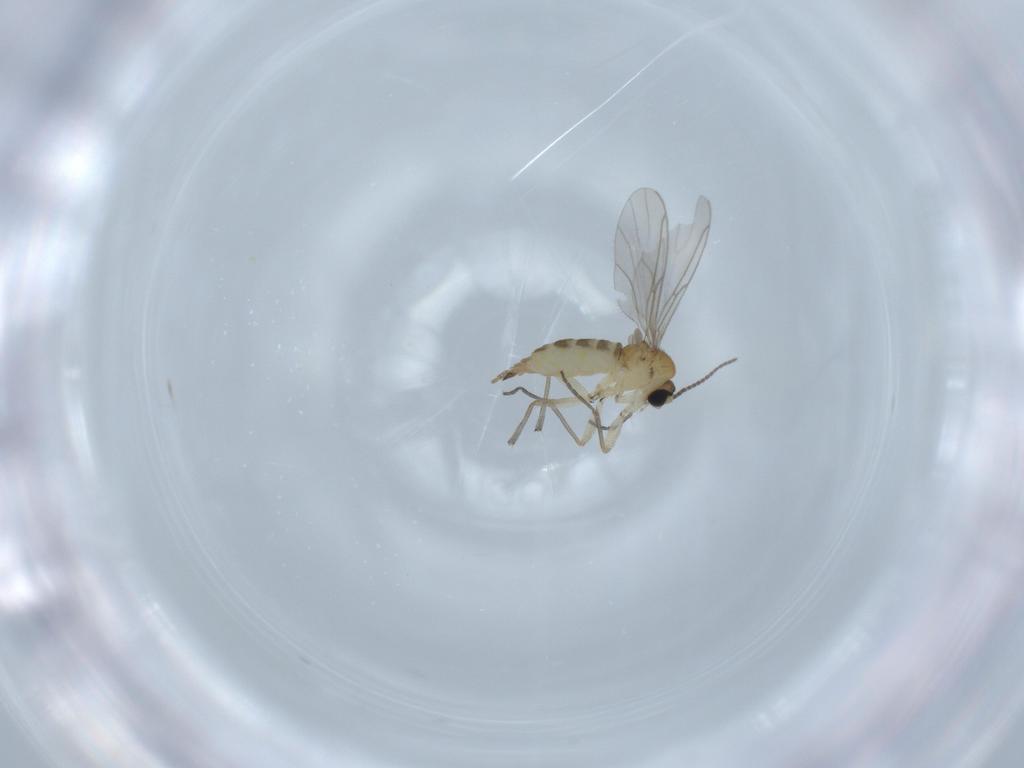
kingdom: Animalia
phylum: Arthropoda
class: Insecta
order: Diptera
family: Sciaridae
